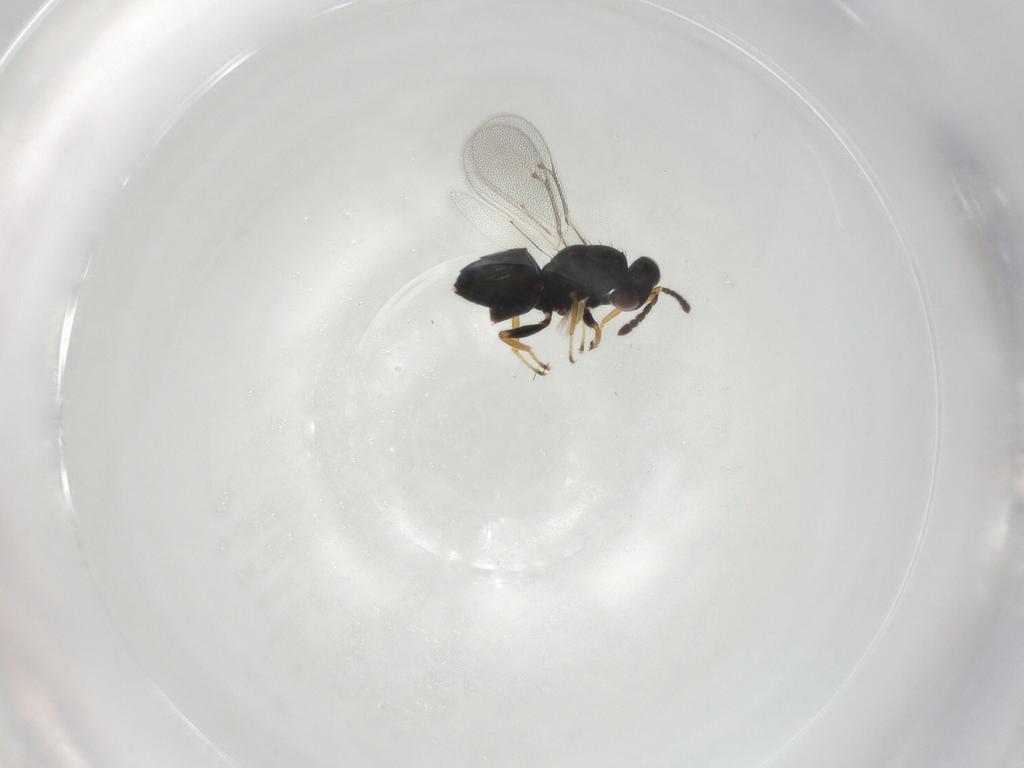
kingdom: Animalia
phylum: Arthropoda
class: Insecta
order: Hymenoptera
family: Eulophidae
